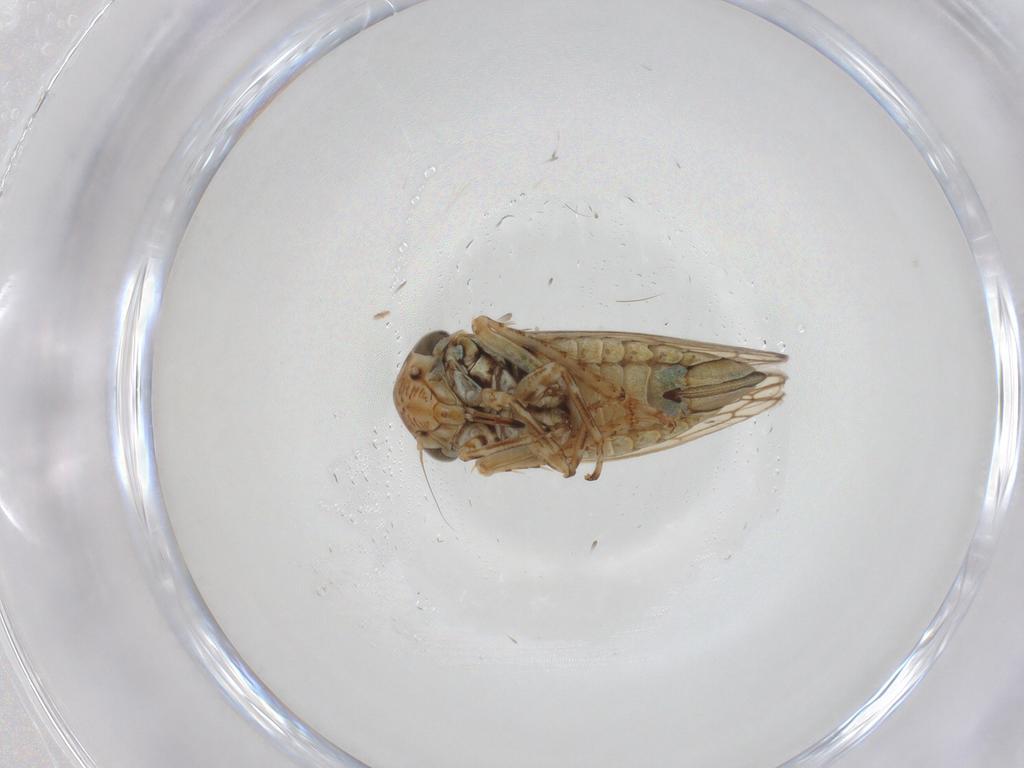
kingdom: Animalia
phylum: Arthropoda
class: Insecta
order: Hemiptera
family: Cicadellidae
